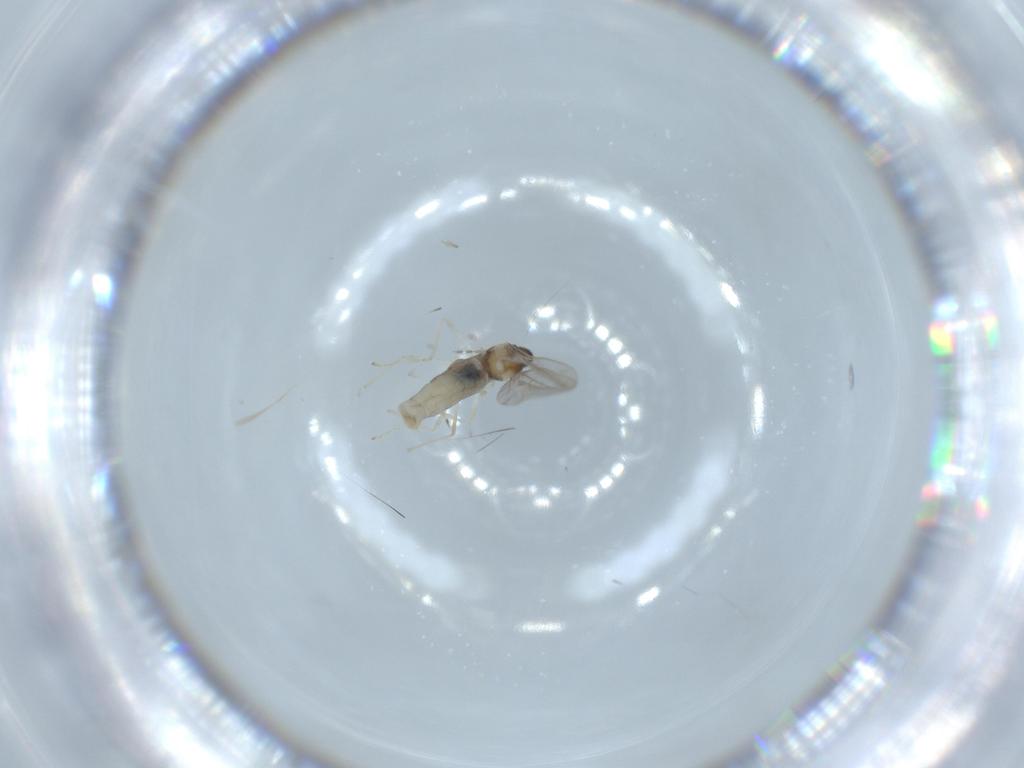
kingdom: Animalia
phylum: Arthropoda
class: Insecta
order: Diptera
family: Cecidomyiidae
